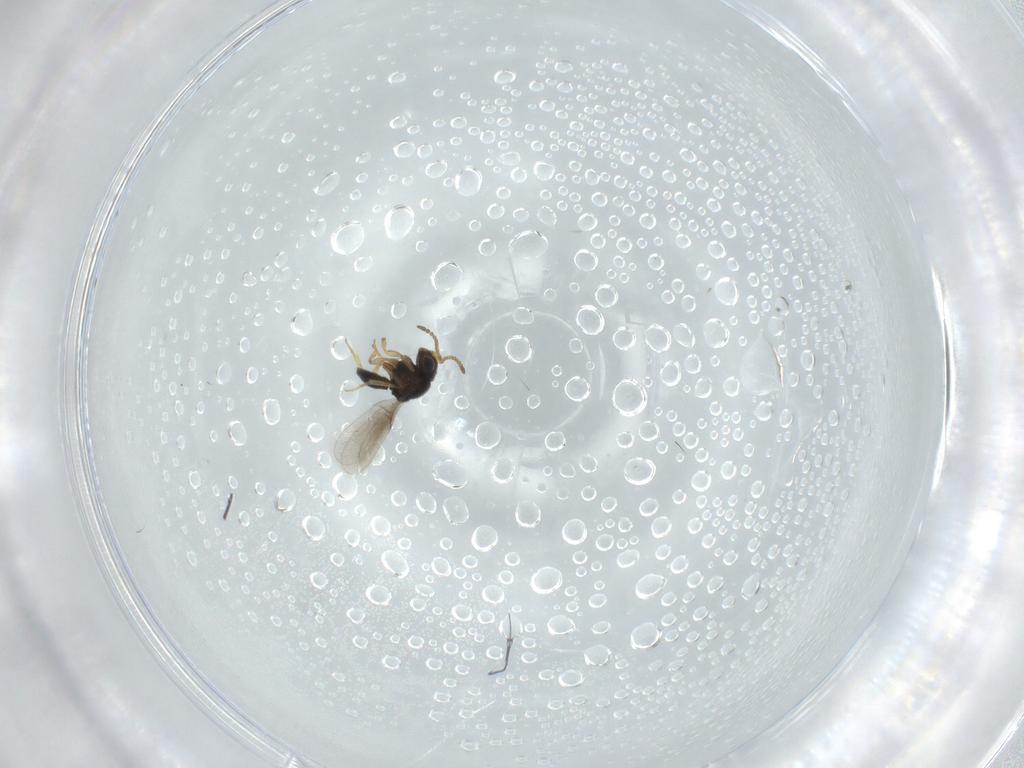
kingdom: Animalia
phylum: Arthropoda
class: Insecta
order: Hymenoptera
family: Scelionidae
